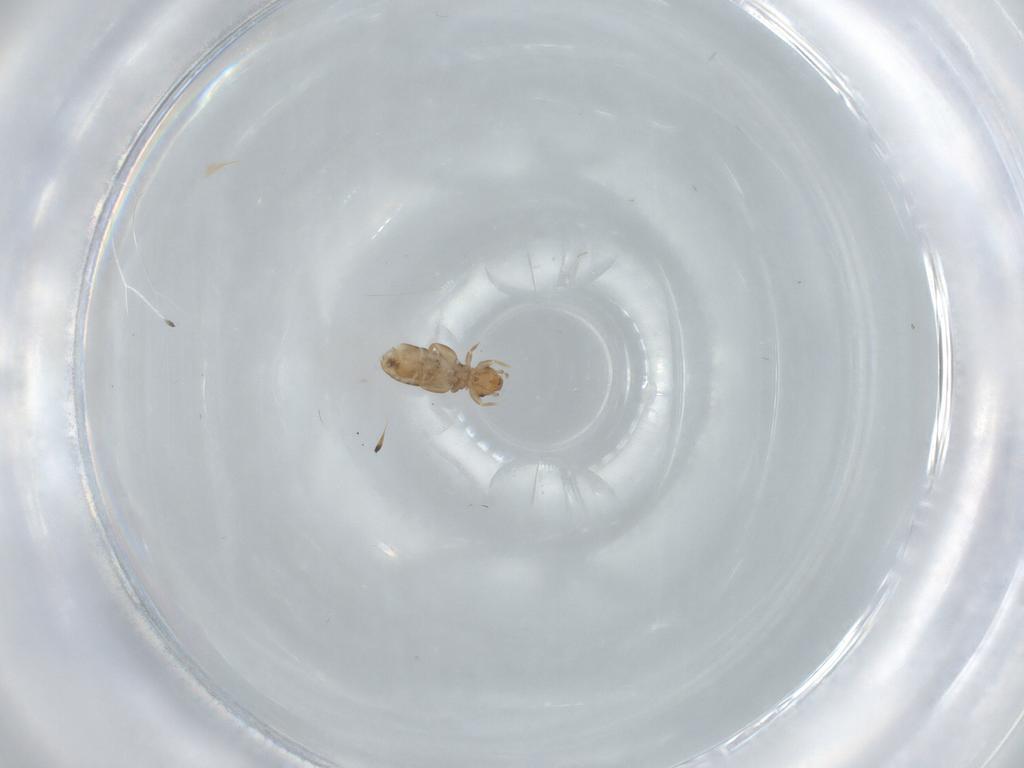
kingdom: Animalia
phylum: Arthropoda
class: Insecta
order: Psocodea
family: Liposcelididae
